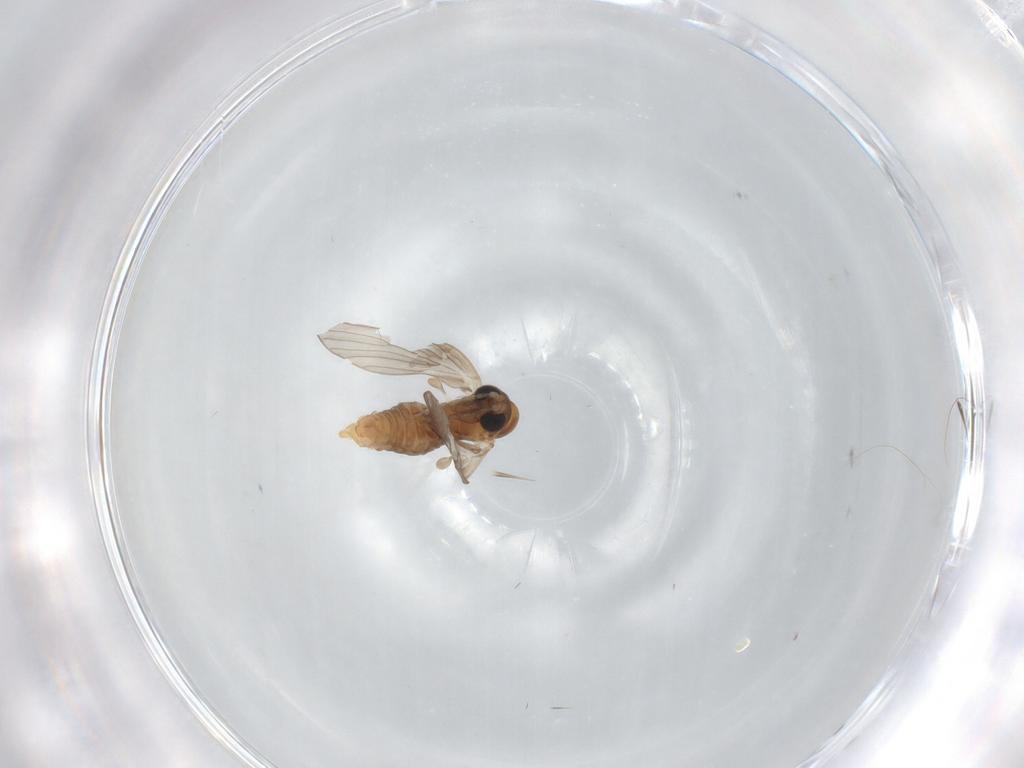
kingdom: Animalia
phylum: Arthropoda
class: Insecta
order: Diptera
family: Psychodidae
